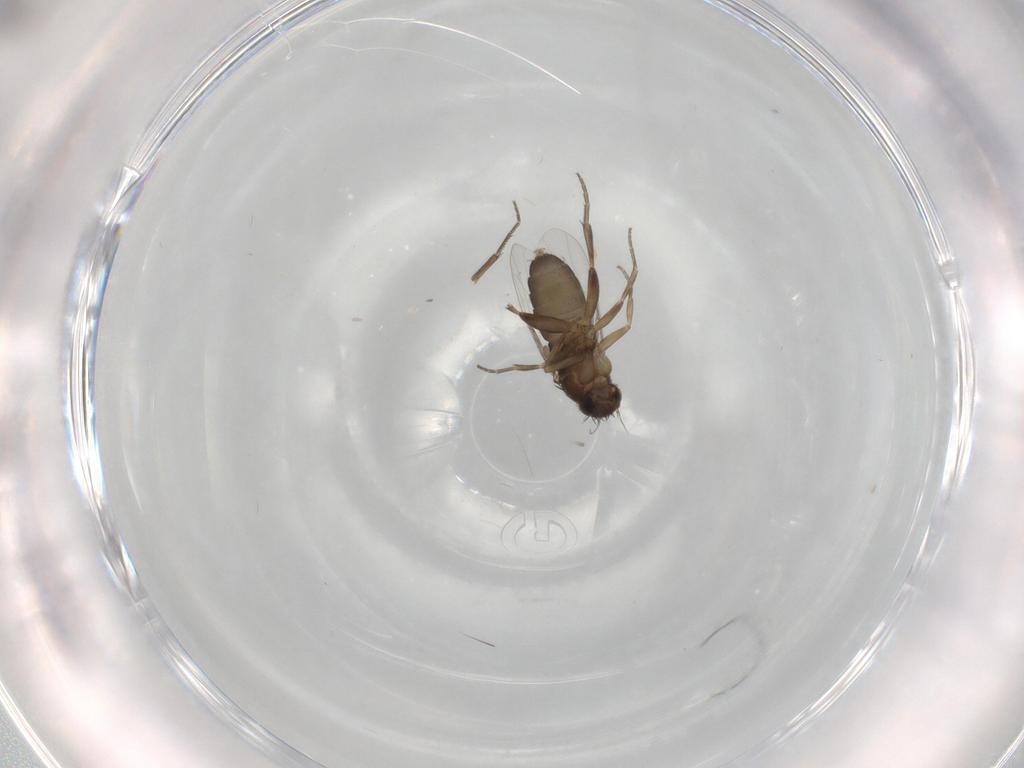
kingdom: Animalia
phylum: Arthropoda
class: Insecta
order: Diptera
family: Phoridae
